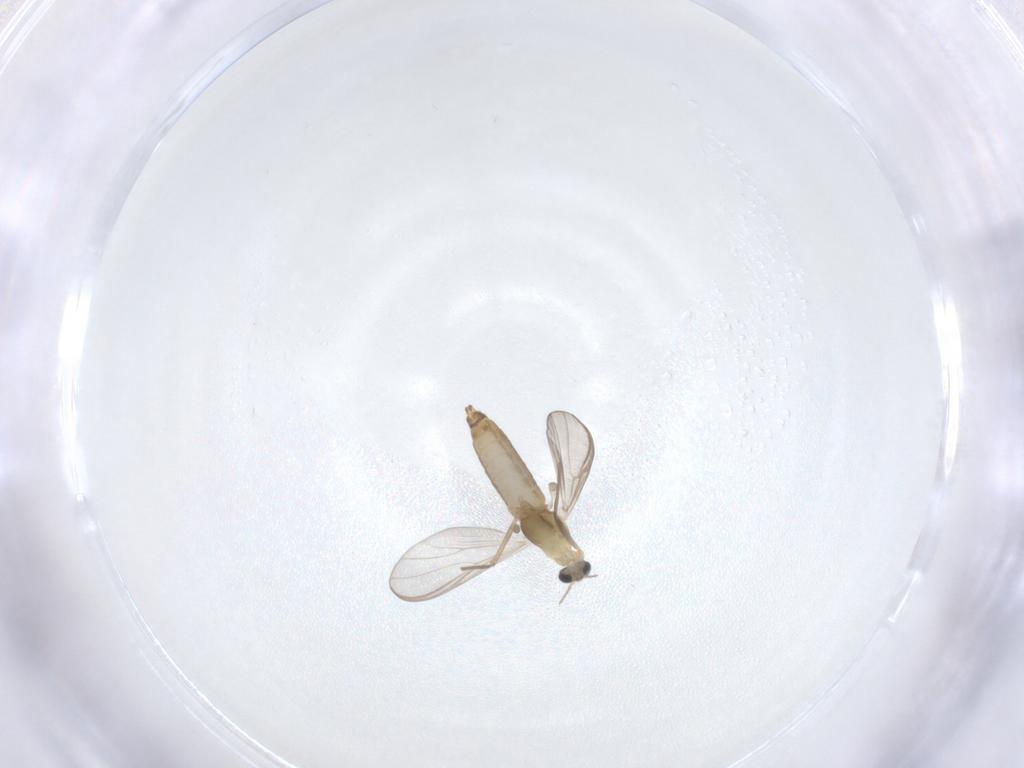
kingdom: Animalia
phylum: Arthropoda
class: Insecta
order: Diptera
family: Chironomidae
